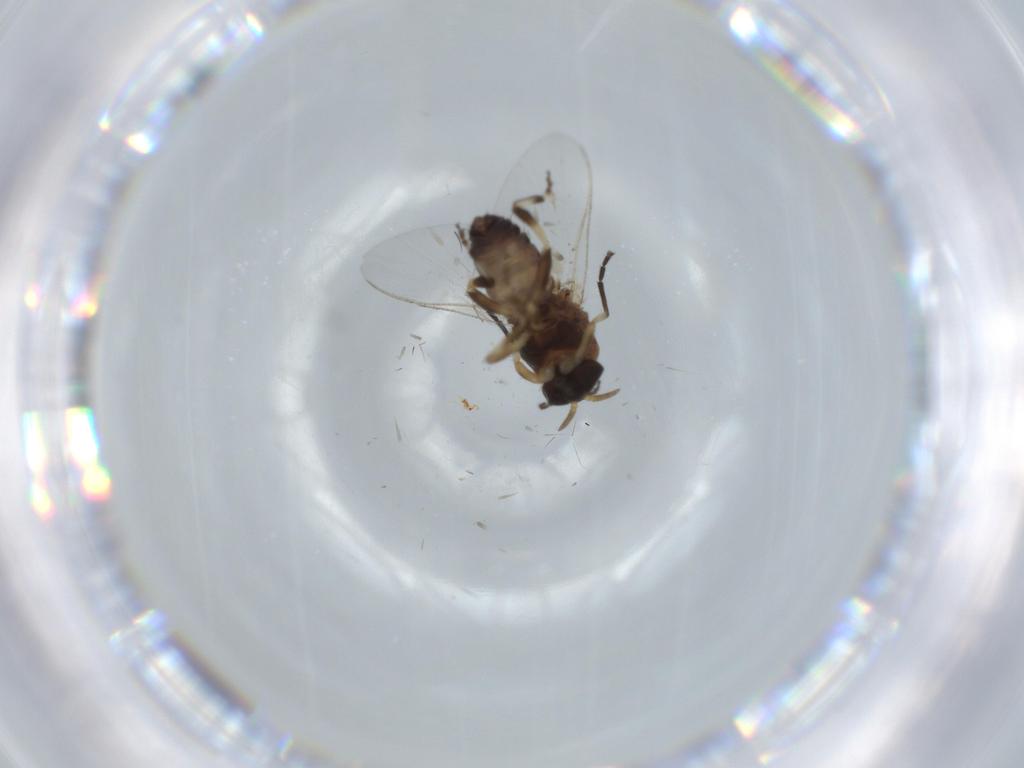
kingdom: Animalia
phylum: Arthropoda
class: Insecta
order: Diptera
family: Cecidomyiidae
